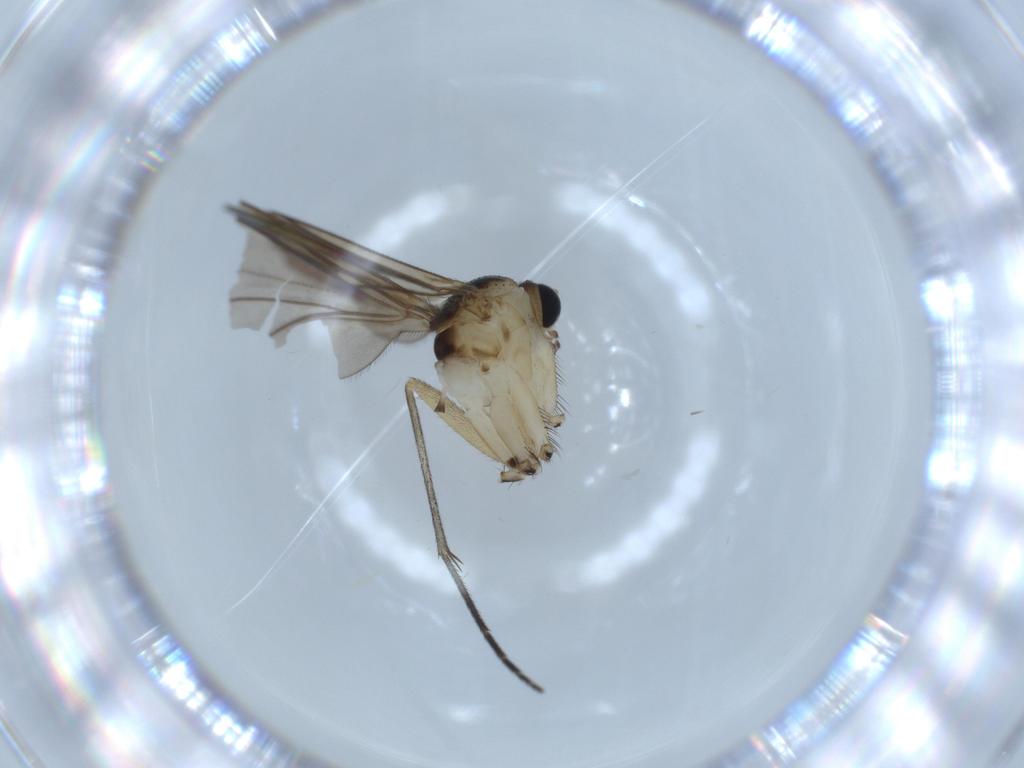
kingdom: Animalia
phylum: Arthropoda
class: Insecta
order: Diptera
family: Sciaridae
